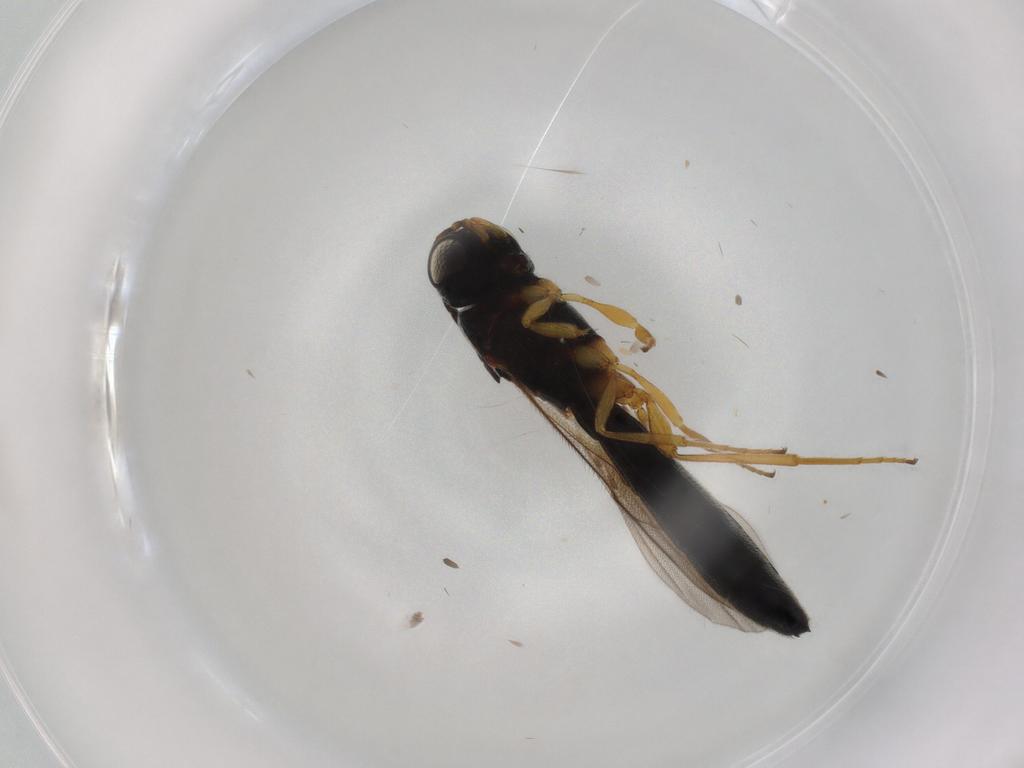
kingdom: Animalia
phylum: Arthropoda
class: Insecta
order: Hymenoptera
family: Scelionidae
